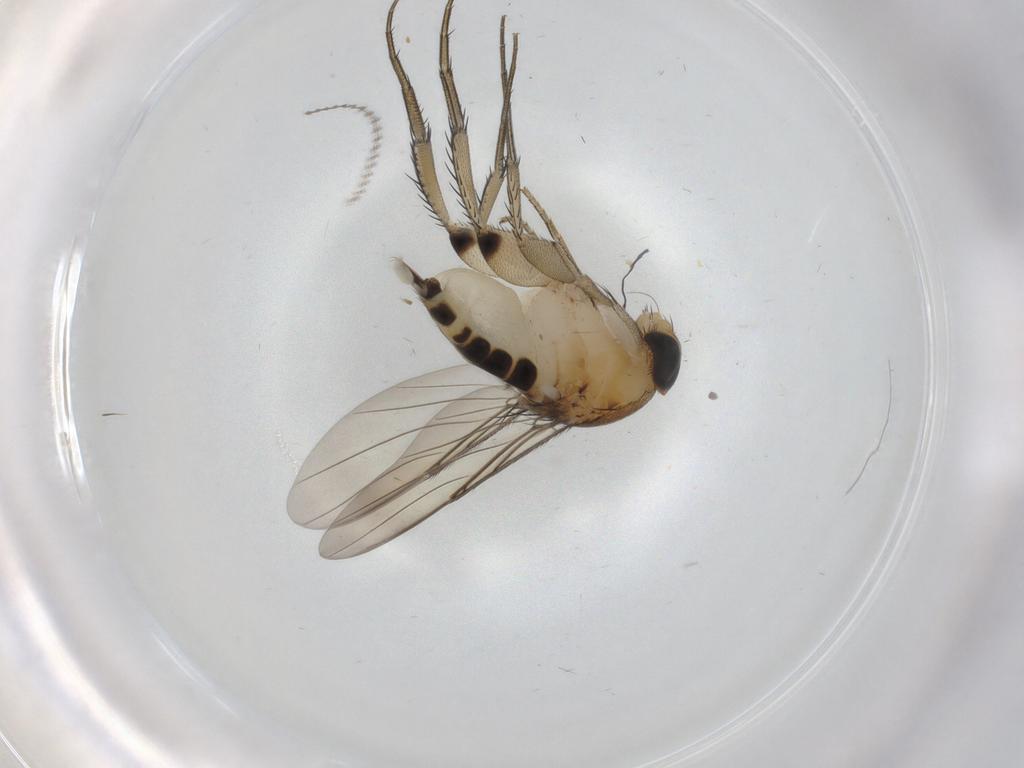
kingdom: Animalia
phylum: Arthropoda
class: Insecta
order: Diptera
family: Cecidomyiidae
